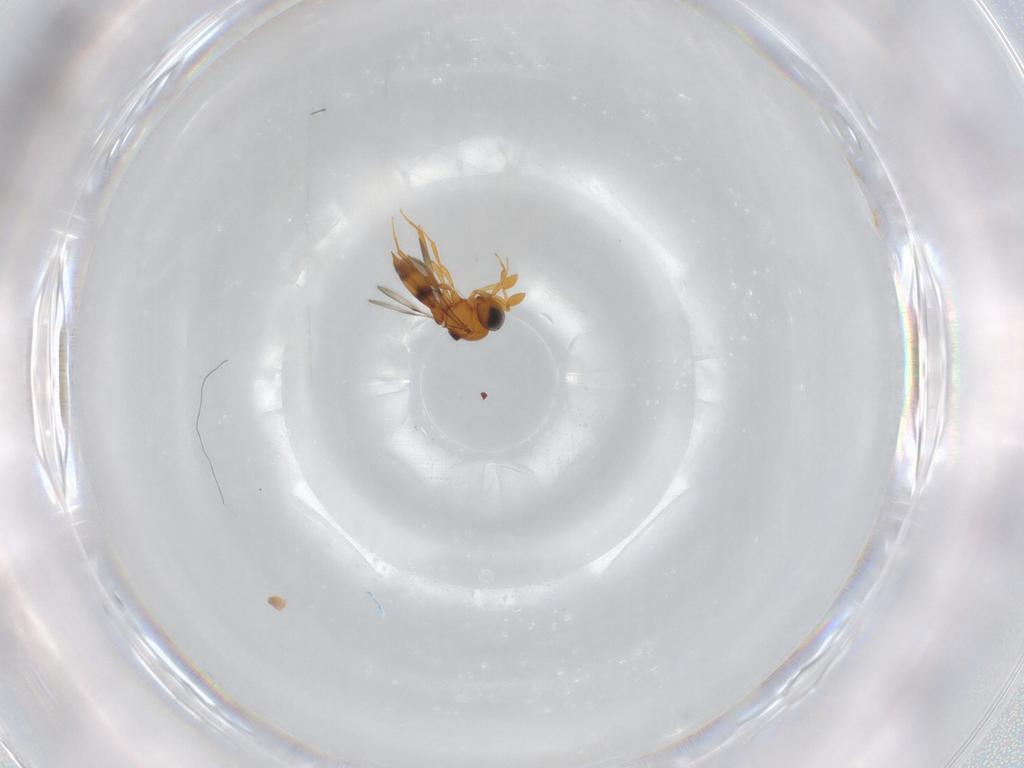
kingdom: Animalia
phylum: Arthropoda
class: Insecta
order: Hymenoptera
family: Scelionidae
